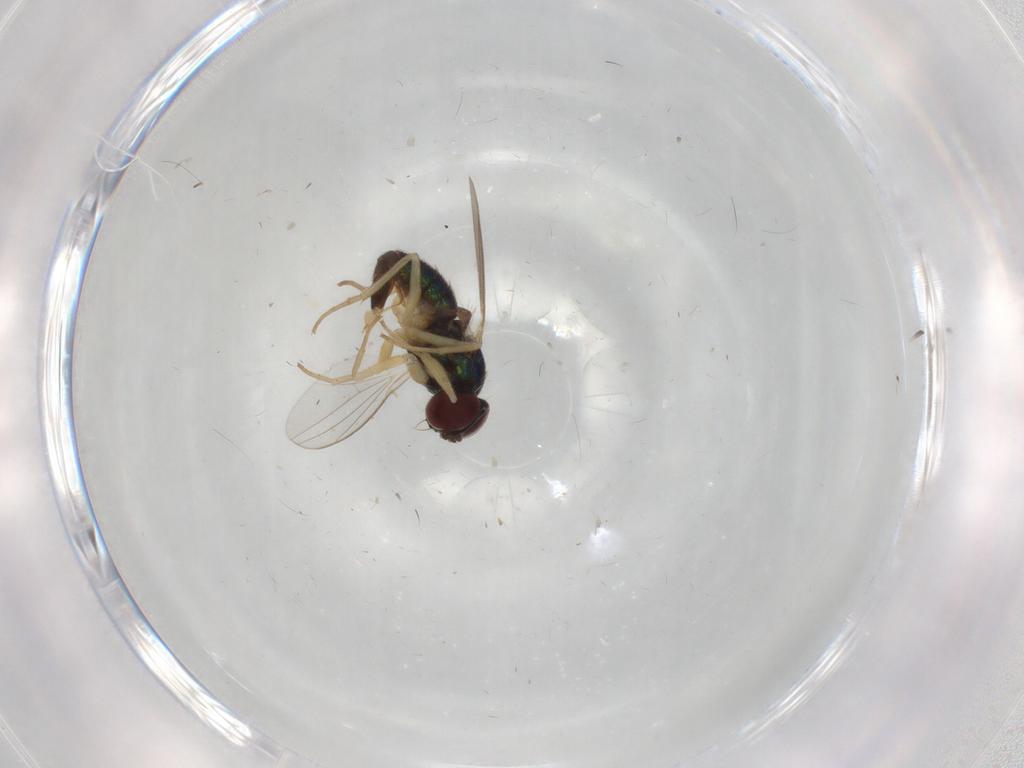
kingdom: Animalia
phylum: Arthropoda
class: Insecta
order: Diptera
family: Dolichopodidae
